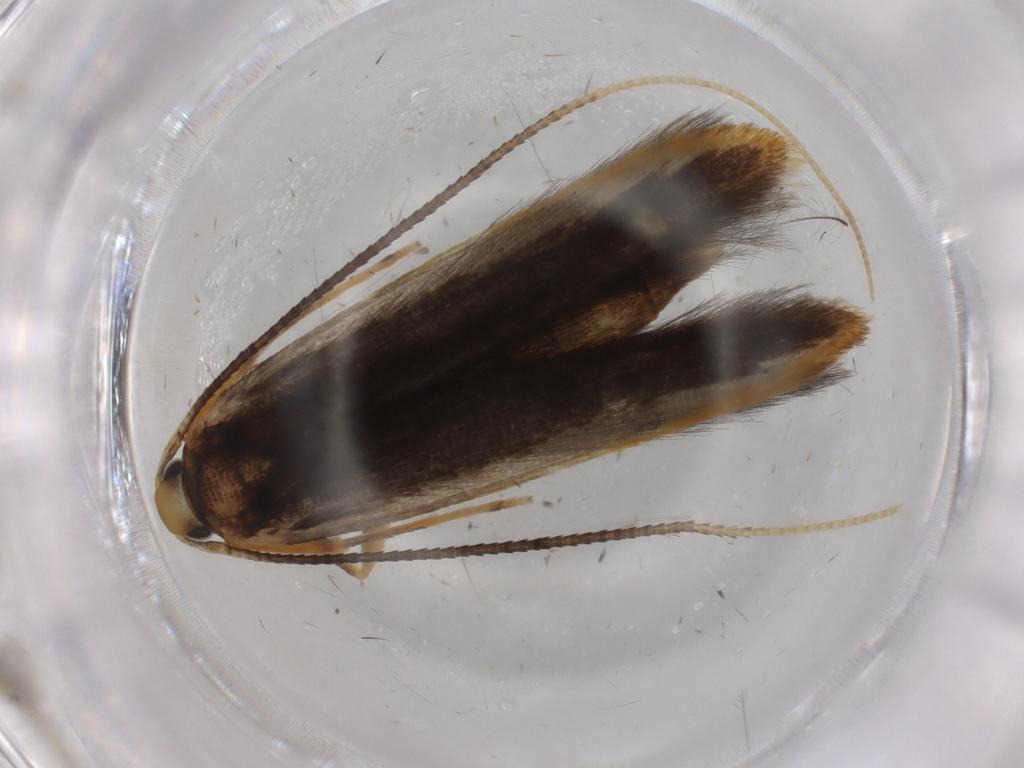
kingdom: Animalia
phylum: Arthropoda
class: Insecta
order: Lepidoptera
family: Pterolonchidae
